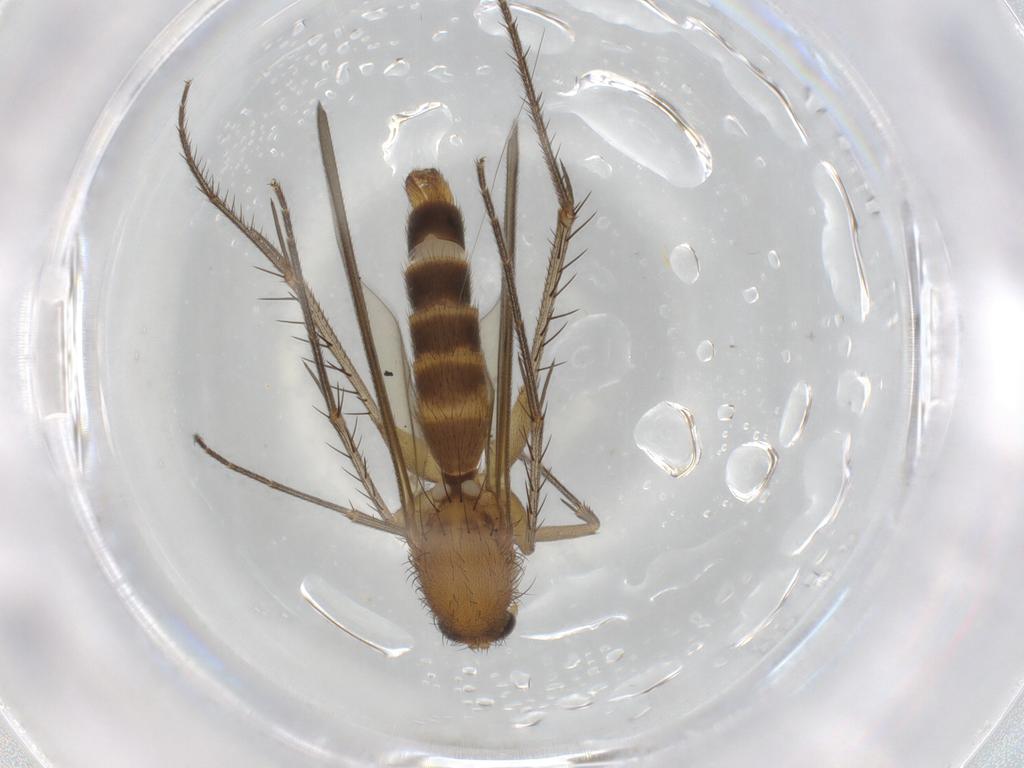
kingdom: Animalia
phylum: Arthropoda
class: Insecta
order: Diptera
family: Mycetophilidae
